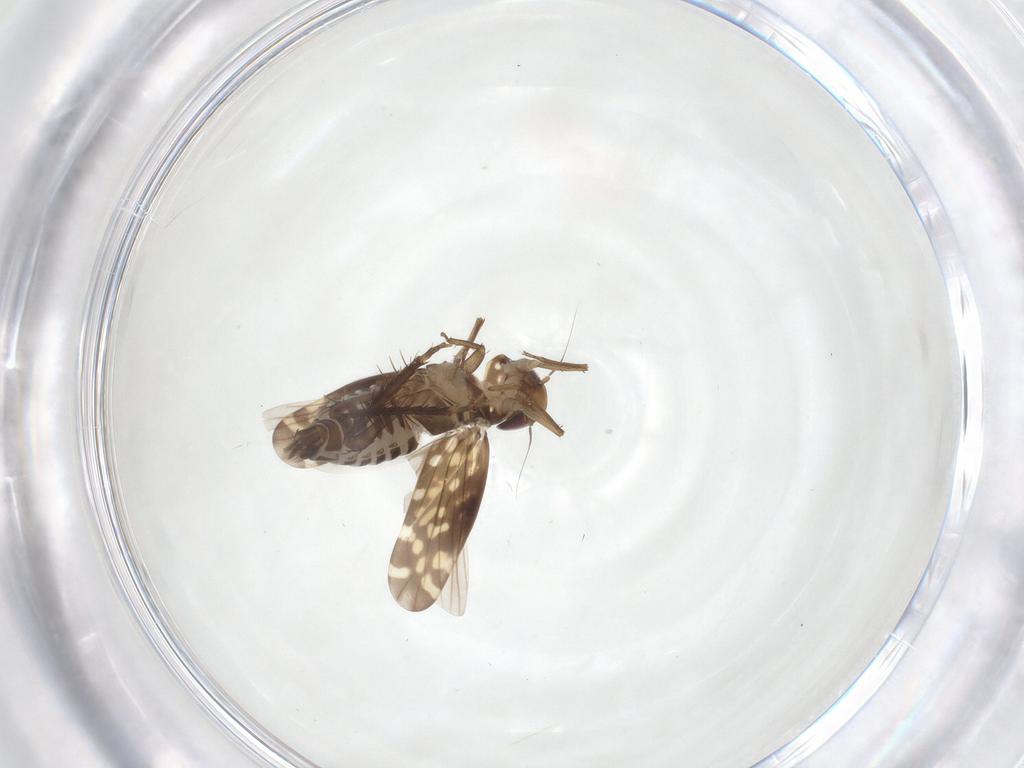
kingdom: Animalia
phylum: Arthropoda
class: Insecta
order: Hemiptera
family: Cicadellidae
